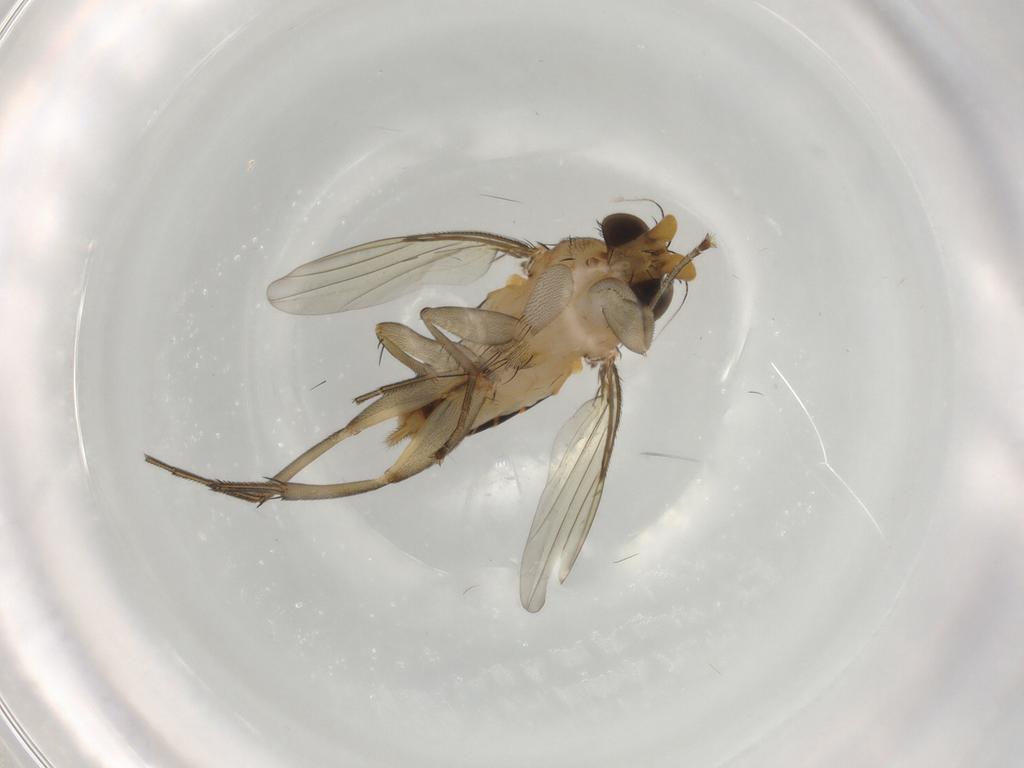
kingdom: Animalia
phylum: Arthropoda
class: Insecta
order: Diptera
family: Phoridae
